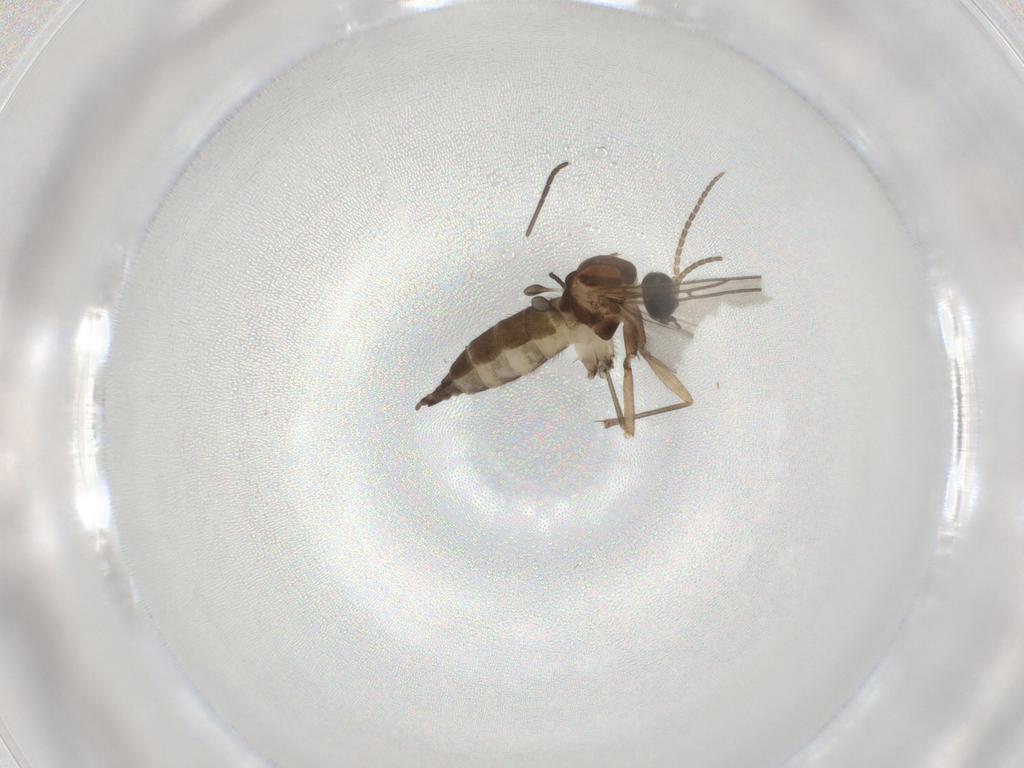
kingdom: Animalia
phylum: Arthropoda
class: Insecta
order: Diptera
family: Sciaridae
